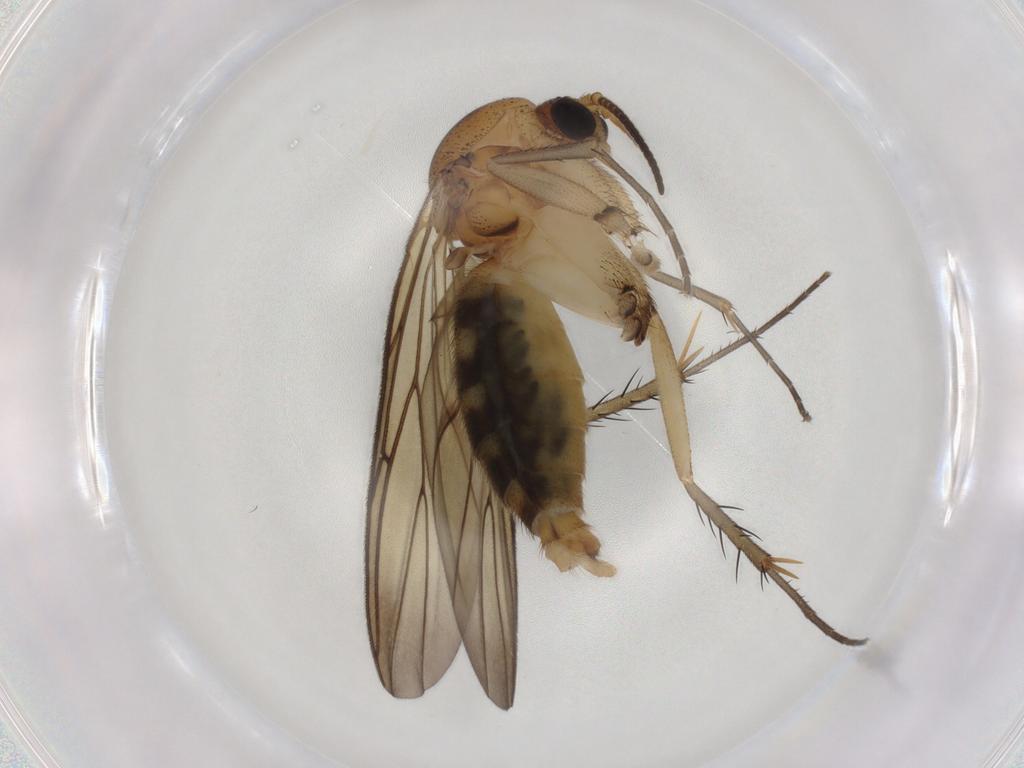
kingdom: Animalia
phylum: Arthropoda
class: Insecta
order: Diptera
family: Mycetophilidae
